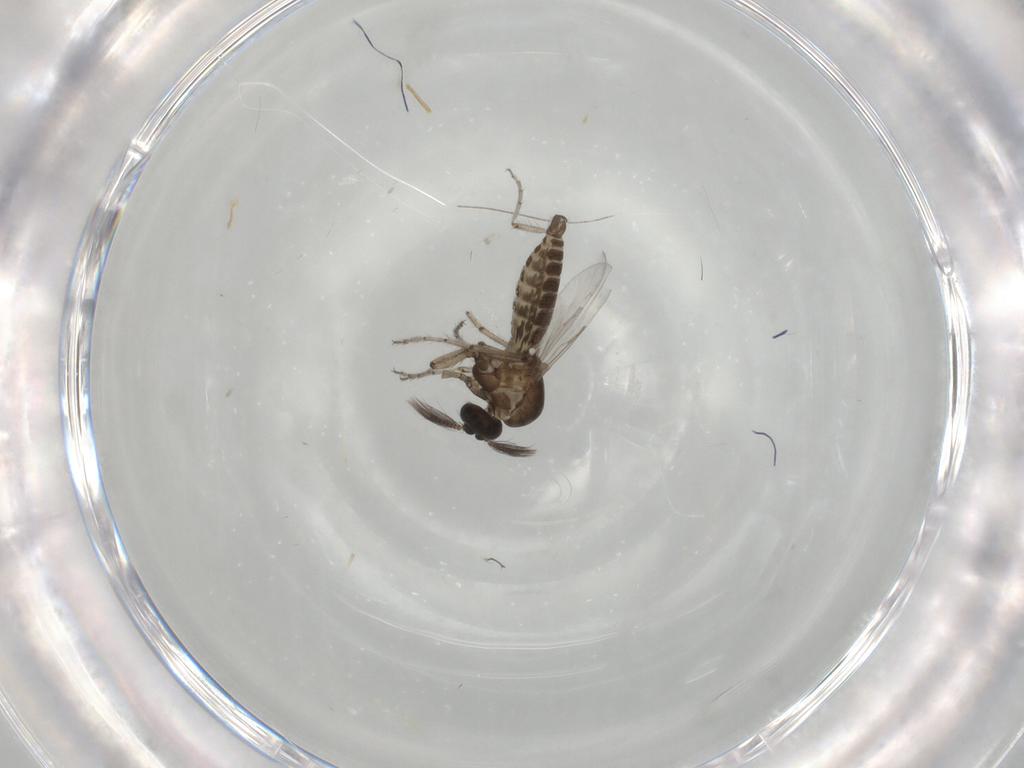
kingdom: Animalia
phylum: Arthropoda
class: Insecta
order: Diptera
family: Ceratopogonidae
